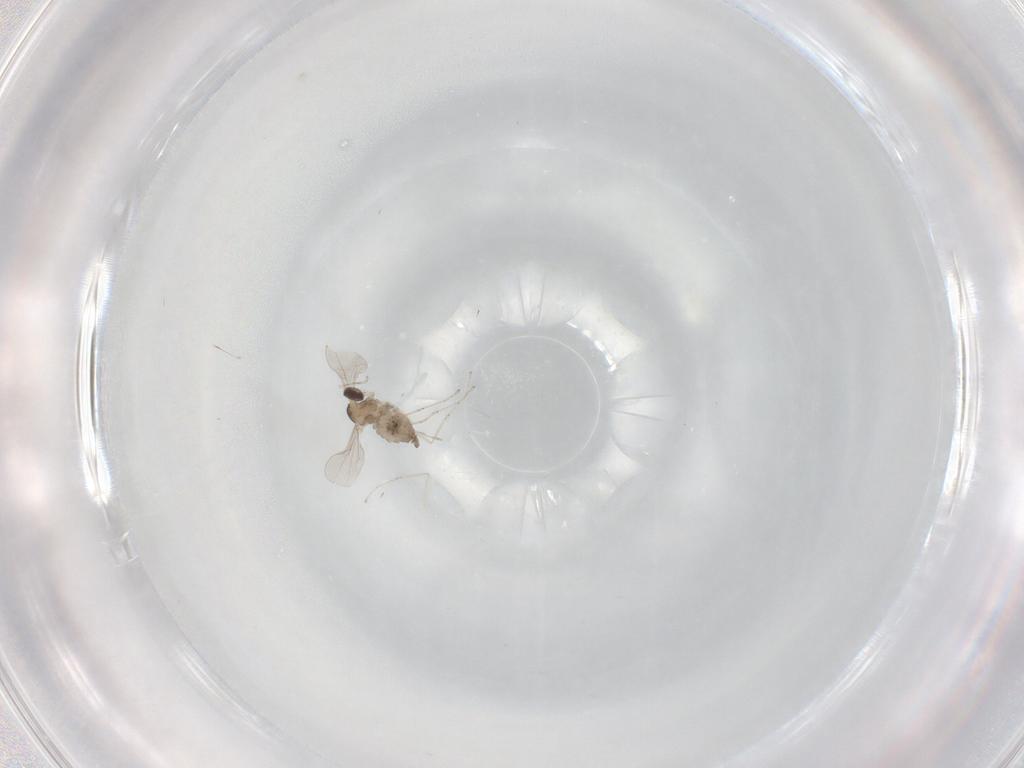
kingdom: Animalia
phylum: Arthropoda
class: Insecta
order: Diptera
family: Cecidomyiidae
